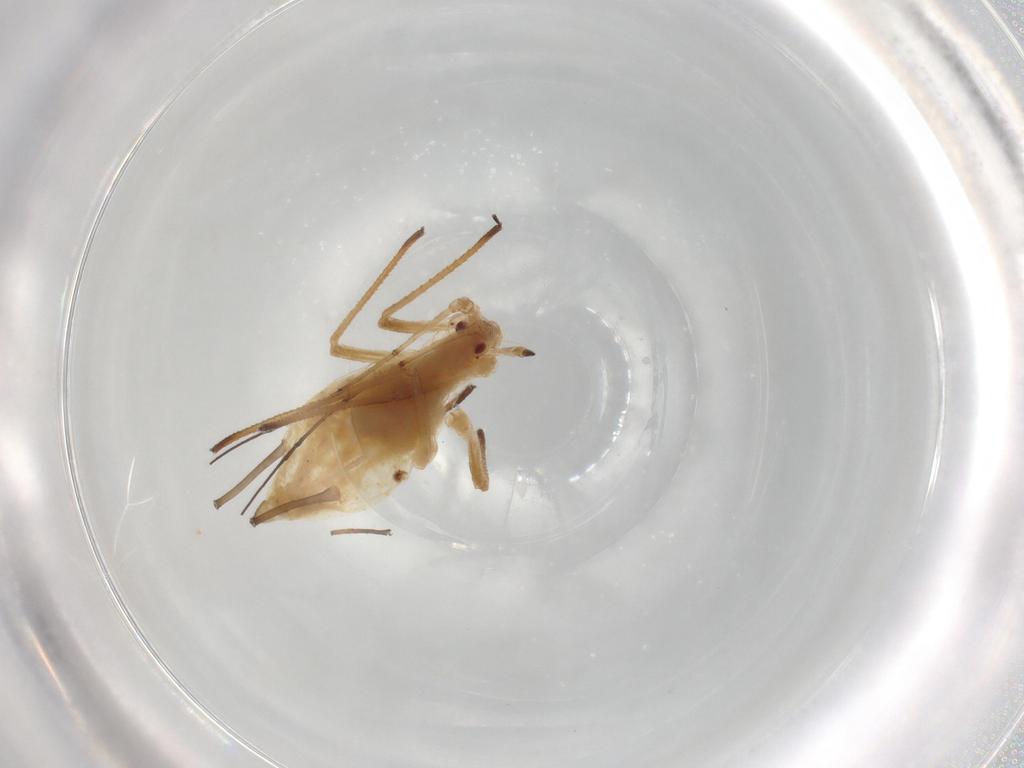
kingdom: Animalia
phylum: Arthropoda
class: Insecta
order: Hemiptera
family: Aphididae
